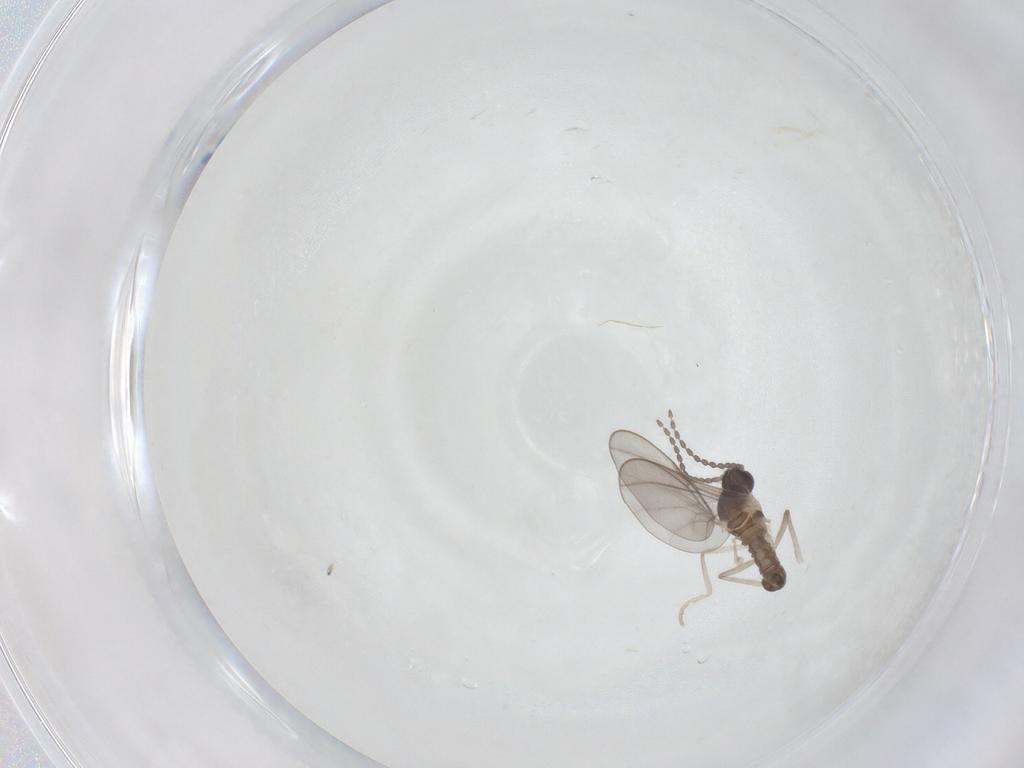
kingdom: Animalia
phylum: Arthropoda
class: Insecta
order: Diptera
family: Cecidomyiidae
